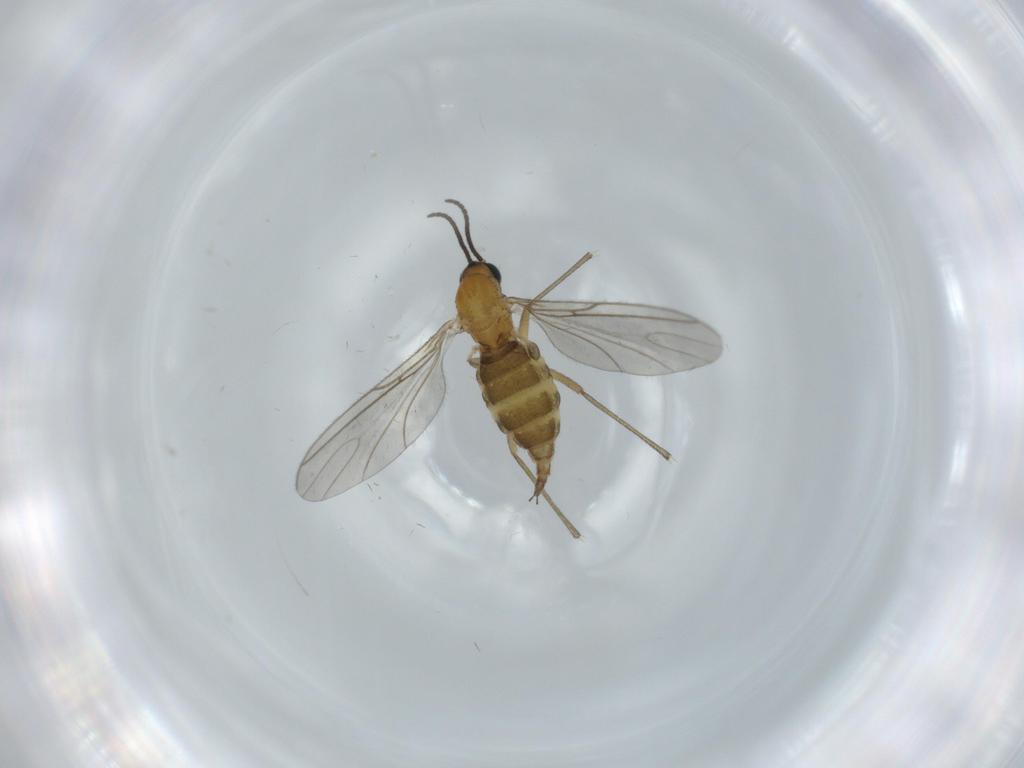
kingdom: Animalia
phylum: Arthropoda
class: Insecta
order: Diptera
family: Sciaridae
